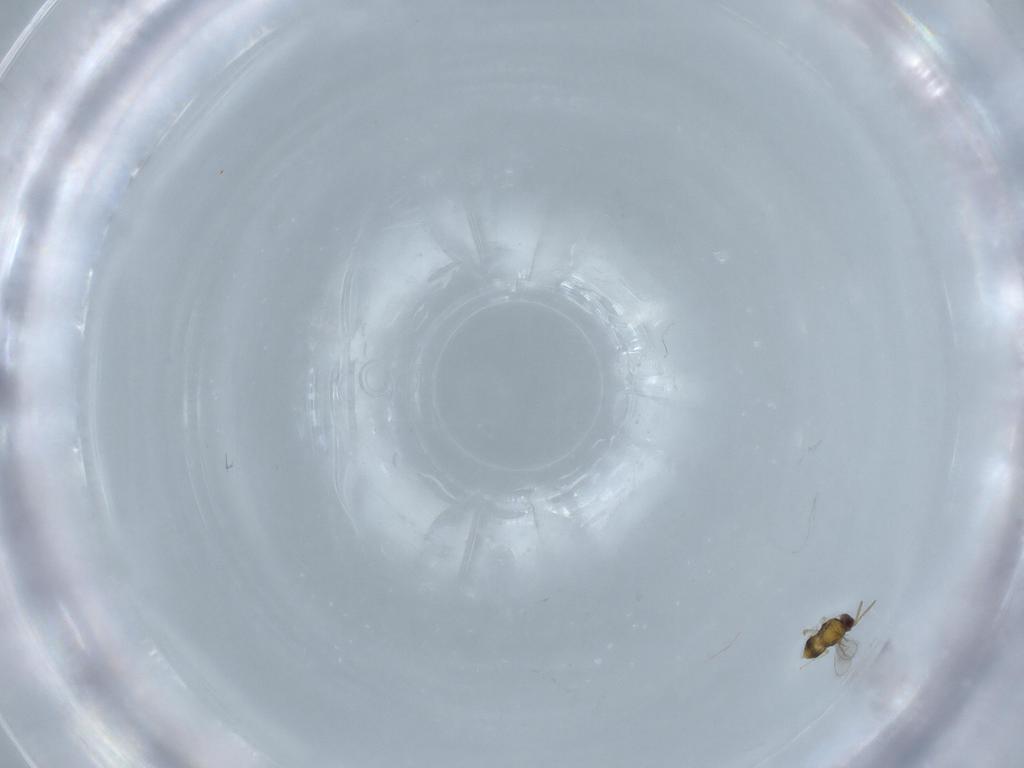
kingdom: Animalia
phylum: Arthropoda
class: Insecta
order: Hymenoptera
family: Aphelinidae
